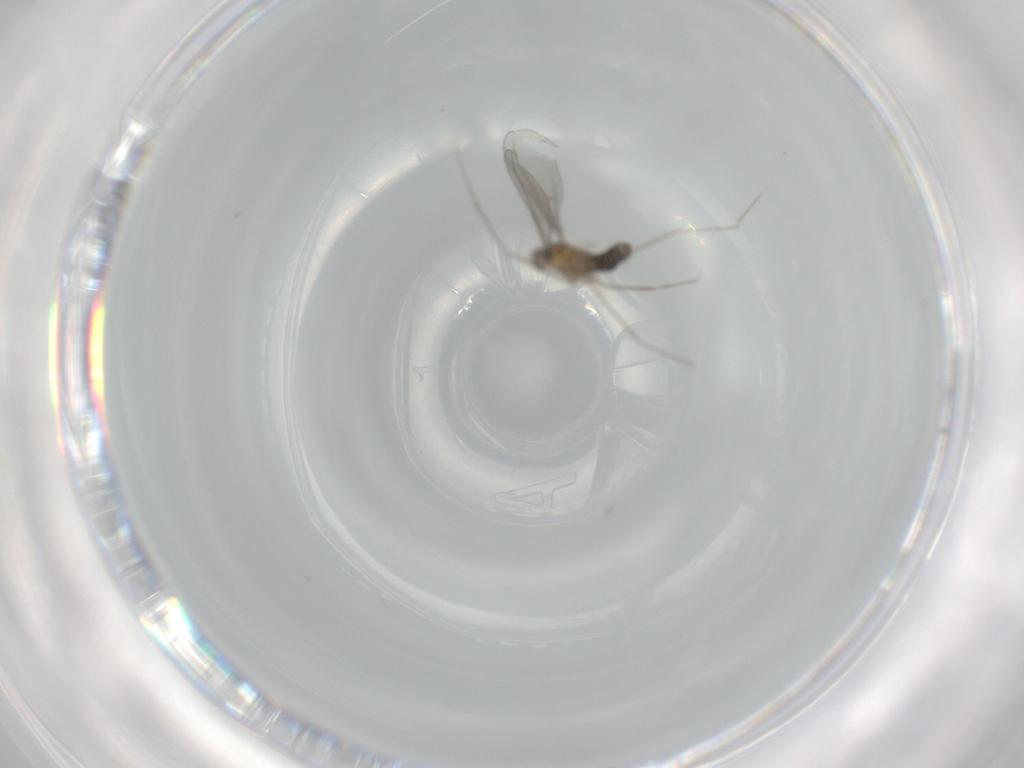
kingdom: Animalia
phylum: Arthropoda
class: Insecta
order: Diptera
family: Cecidomyiidae
